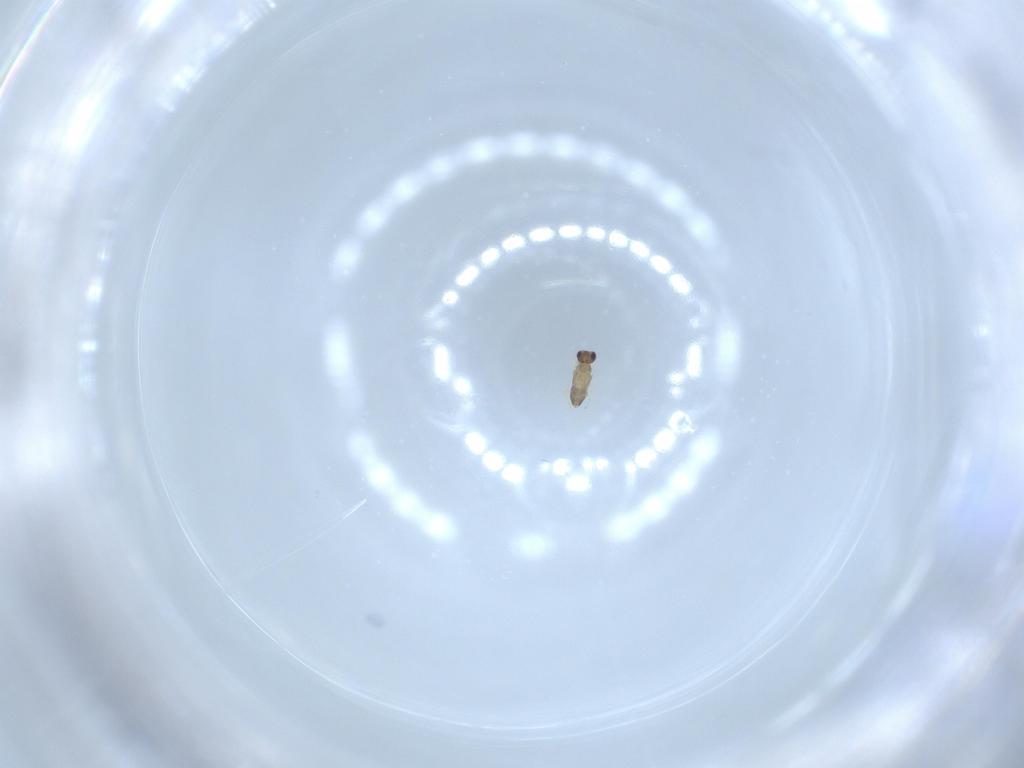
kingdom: Animalia
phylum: Arthropoda
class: Insecta
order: Hymenoptera
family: Mymaridae
